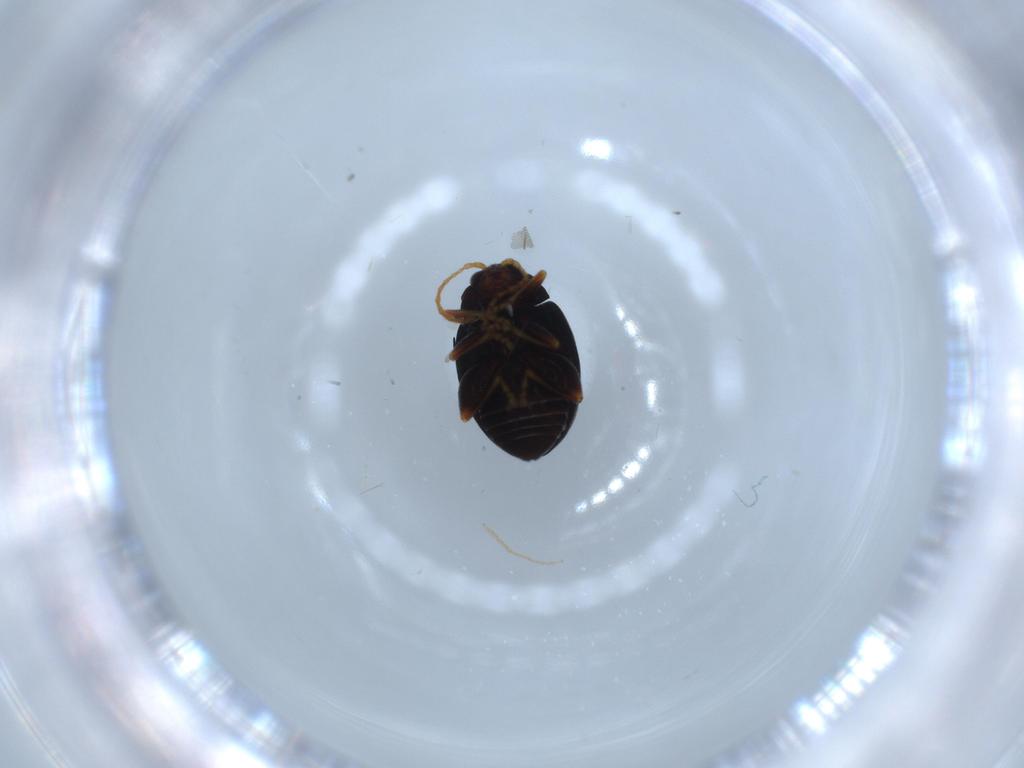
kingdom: Animalia
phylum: Arthropoda
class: Insecta
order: Coleoptera
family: Chrysomelidae
